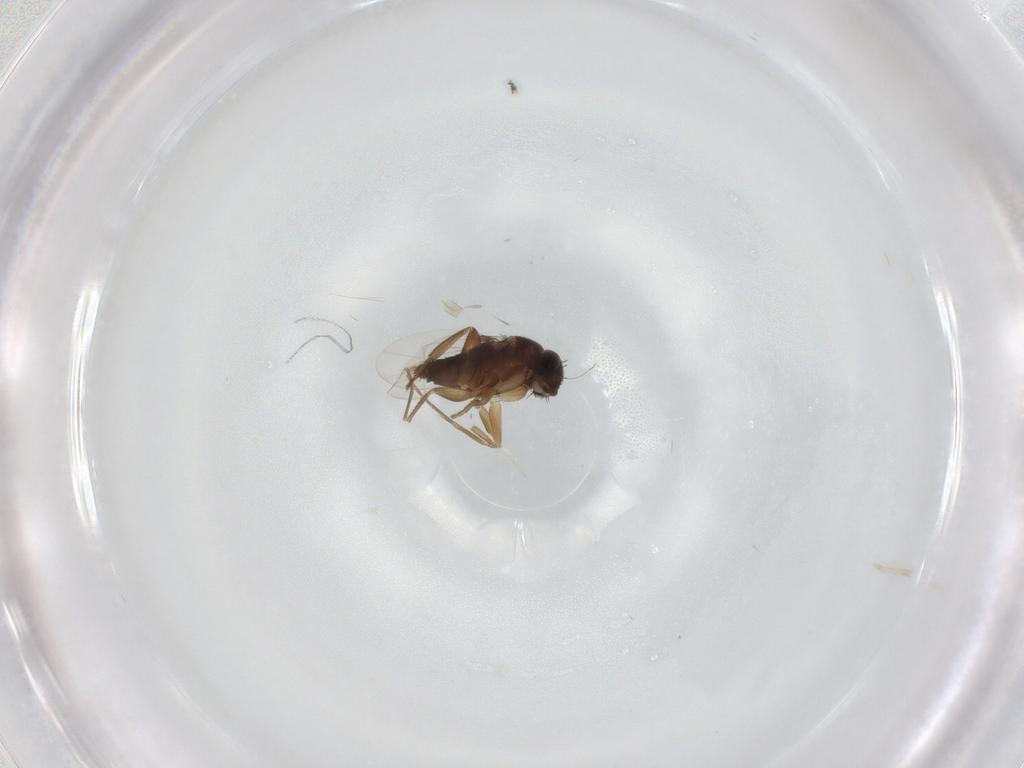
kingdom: Animalia
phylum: Arthropoda
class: Insecta
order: Diptera
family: Phoridae
